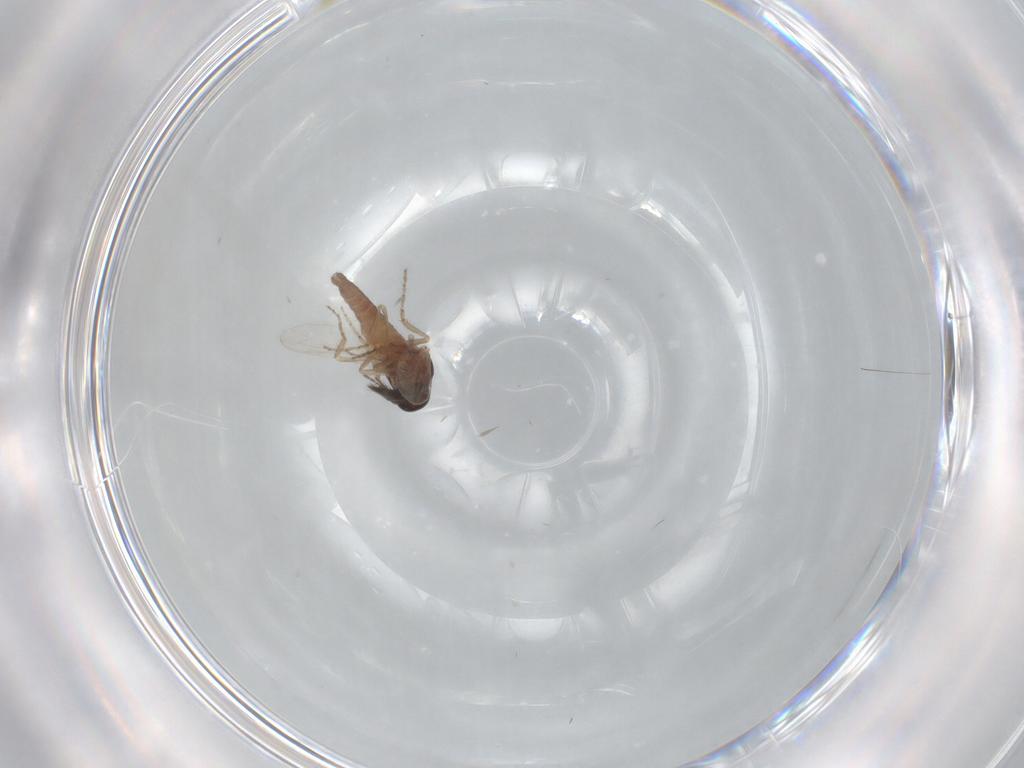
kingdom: Animalia
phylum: Arthropoda
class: Insecta
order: Diptera
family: Ceratopogonidae
